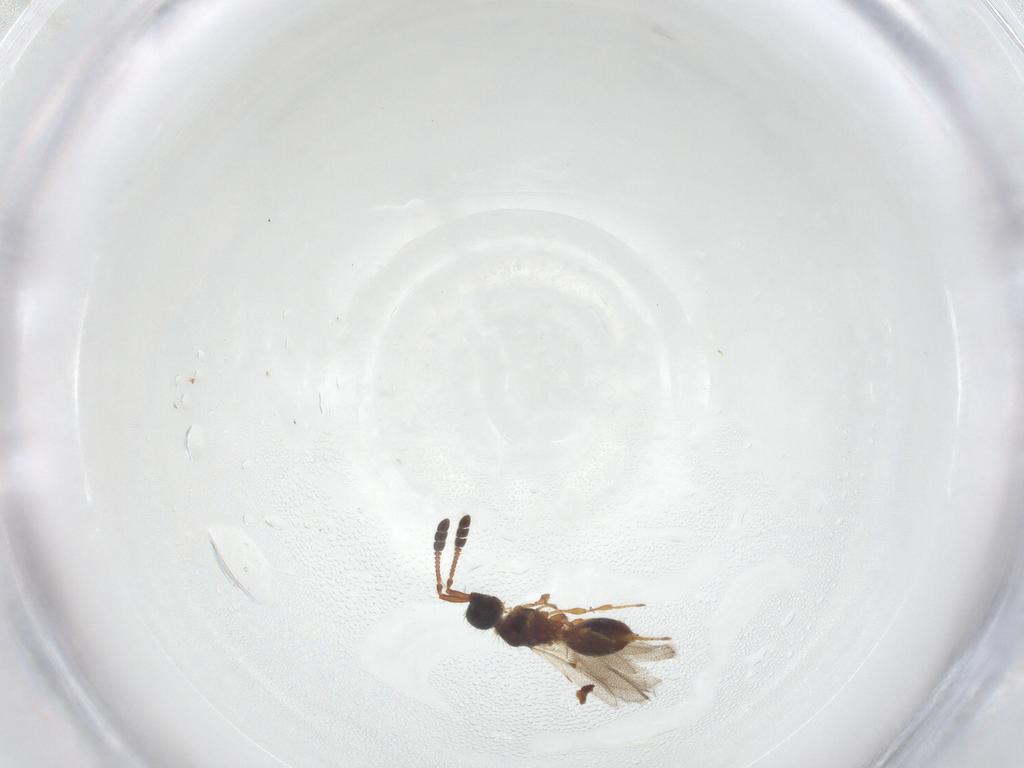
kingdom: Animalia
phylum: Arthropoda
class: Insecta
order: Hymenoptera
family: Diapriidae
